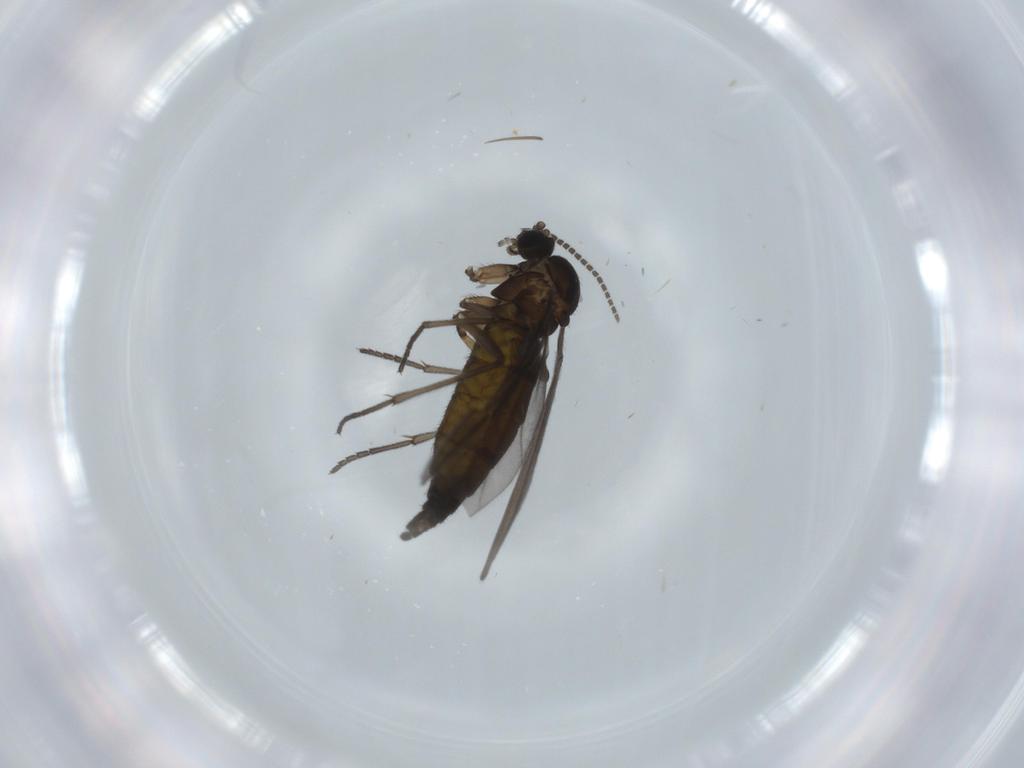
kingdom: Animalia
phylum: Arthropoda
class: Insecta
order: Diptera
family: Sciaridae
